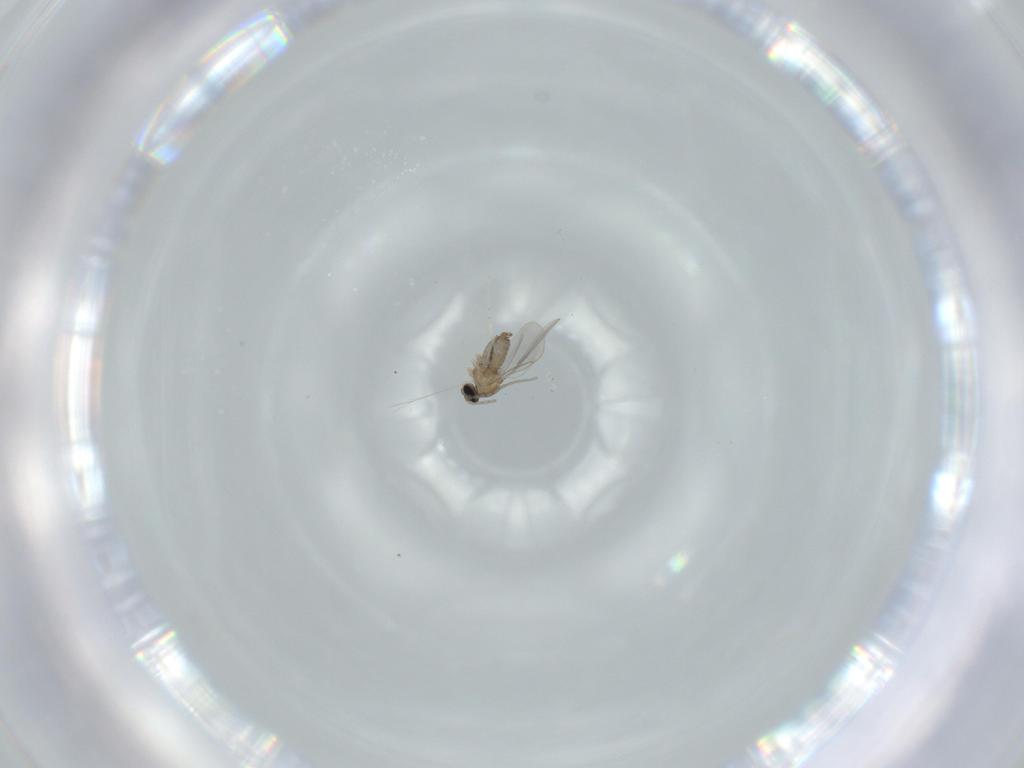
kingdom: Animalia
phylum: Arthropoda
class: Insecta
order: Diptera
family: Cecidomyiidae
